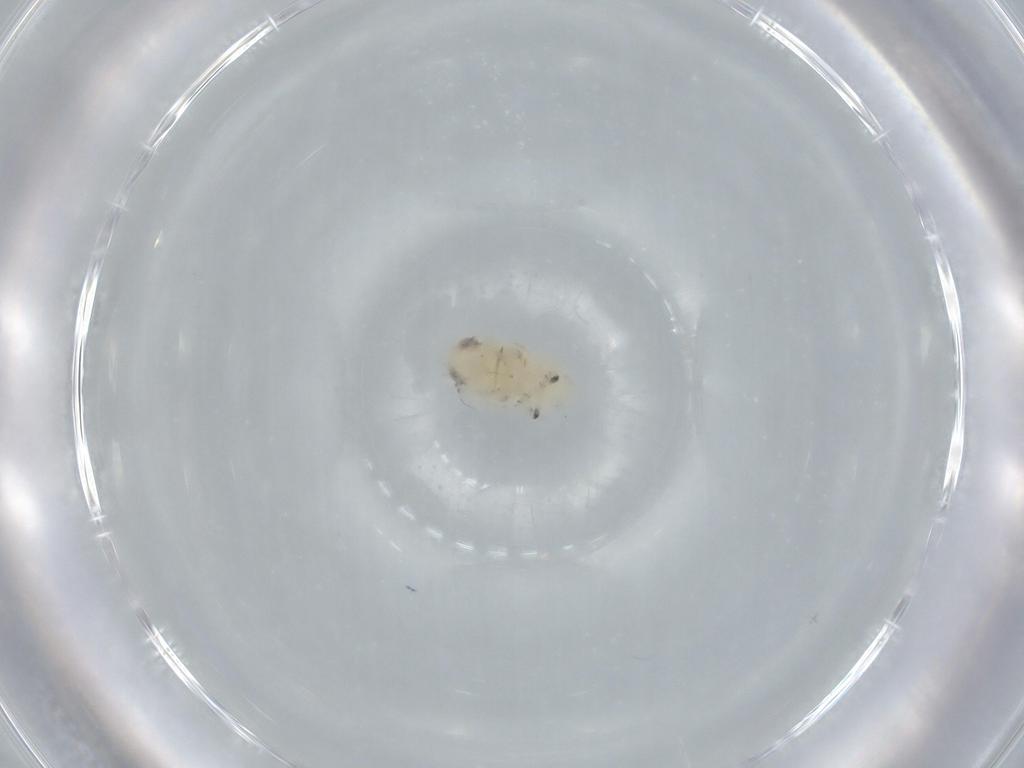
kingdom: Animalia
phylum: Arthropoda
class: Insecta
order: Hemiptera
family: Nogodinidae
